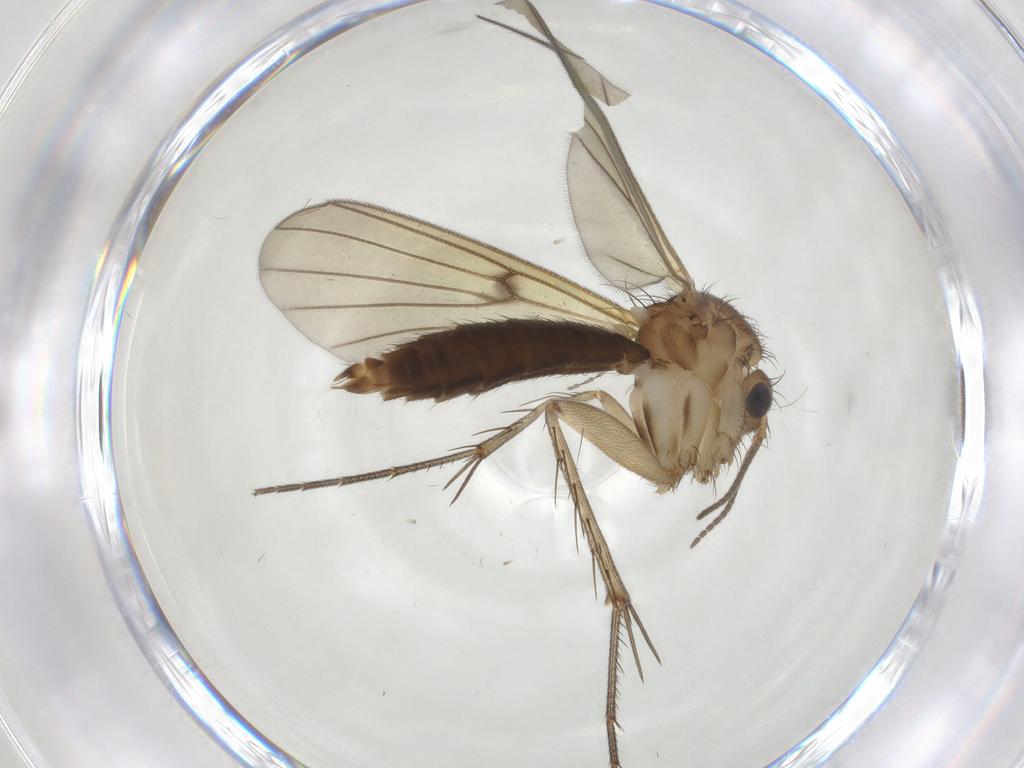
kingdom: Animalia
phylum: Arthropoda
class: Insecta
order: Diptera
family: Cecidomyiidae
